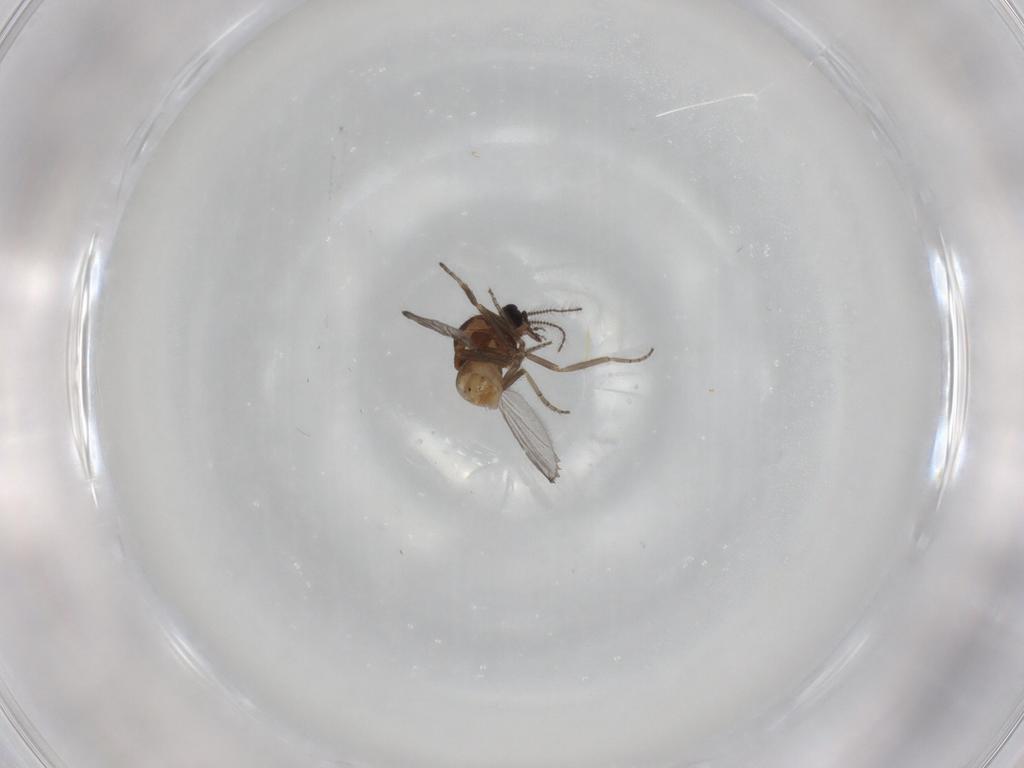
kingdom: Animalia
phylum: Arthropoda
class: Insecta
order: Diptera
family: Ceratopogonidae
